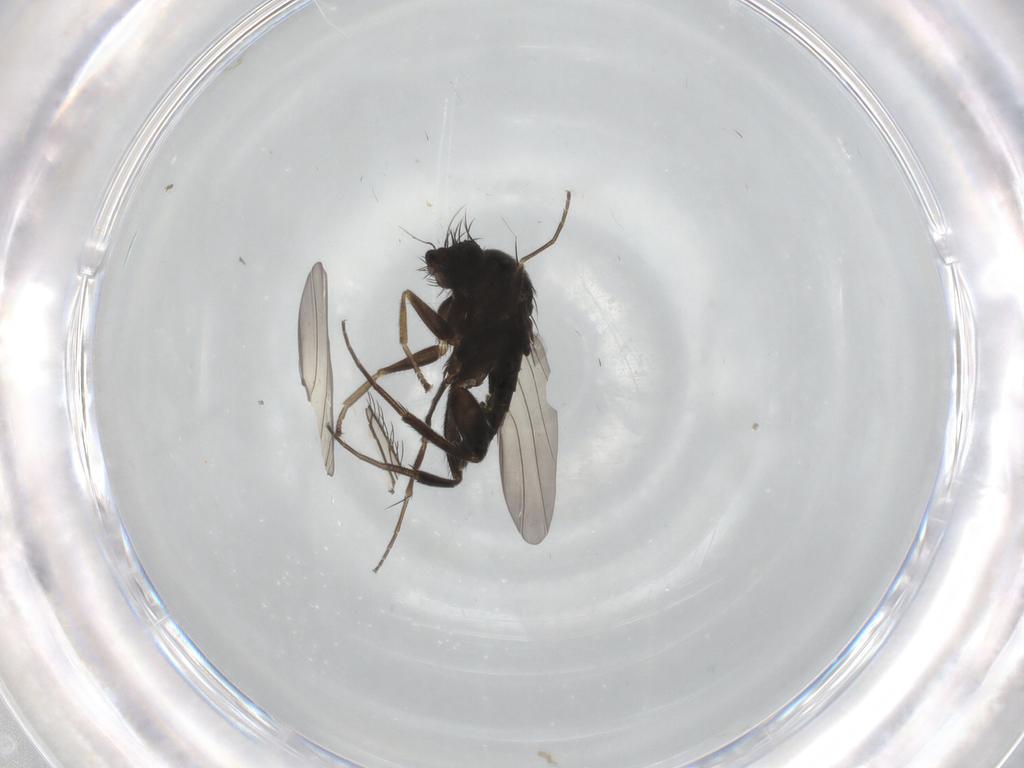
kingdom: Animalia
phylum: Arthropoda
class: Insecta
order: Diptera
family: Phoridae
